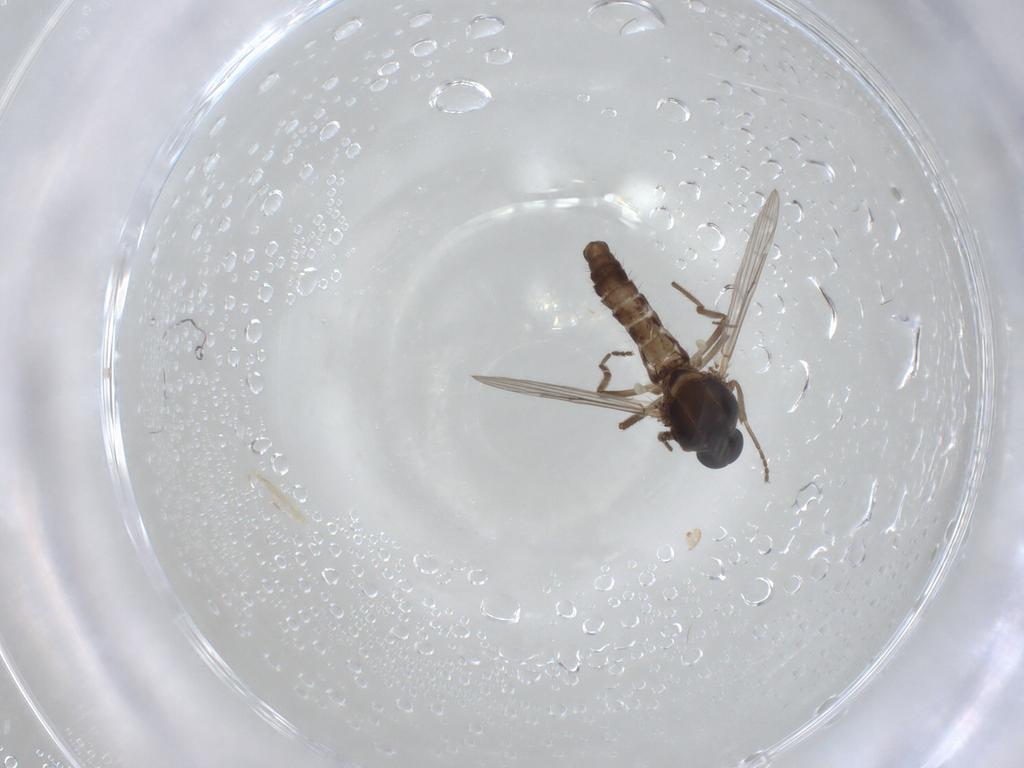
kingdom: Animalia
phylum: Arthropoda
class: Insecta
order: Diptera
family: Ceratopogonidae
